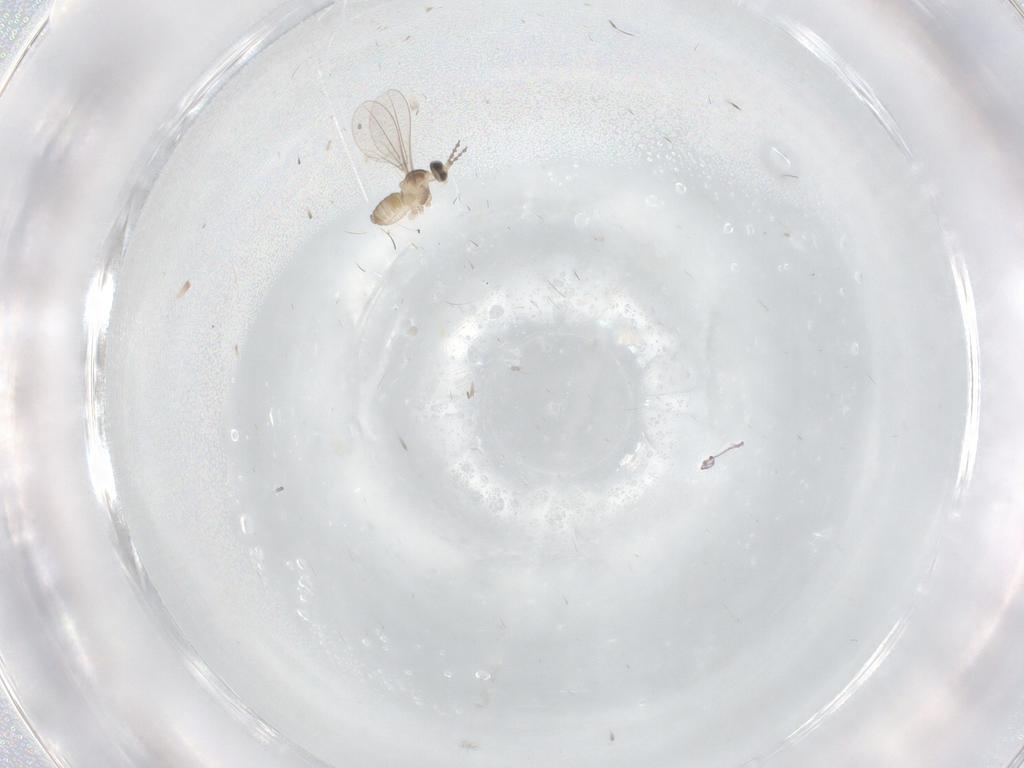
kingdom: Animalia
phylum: Arthropoda
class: Insecta
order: Diptera
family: Cecidomyiidae
